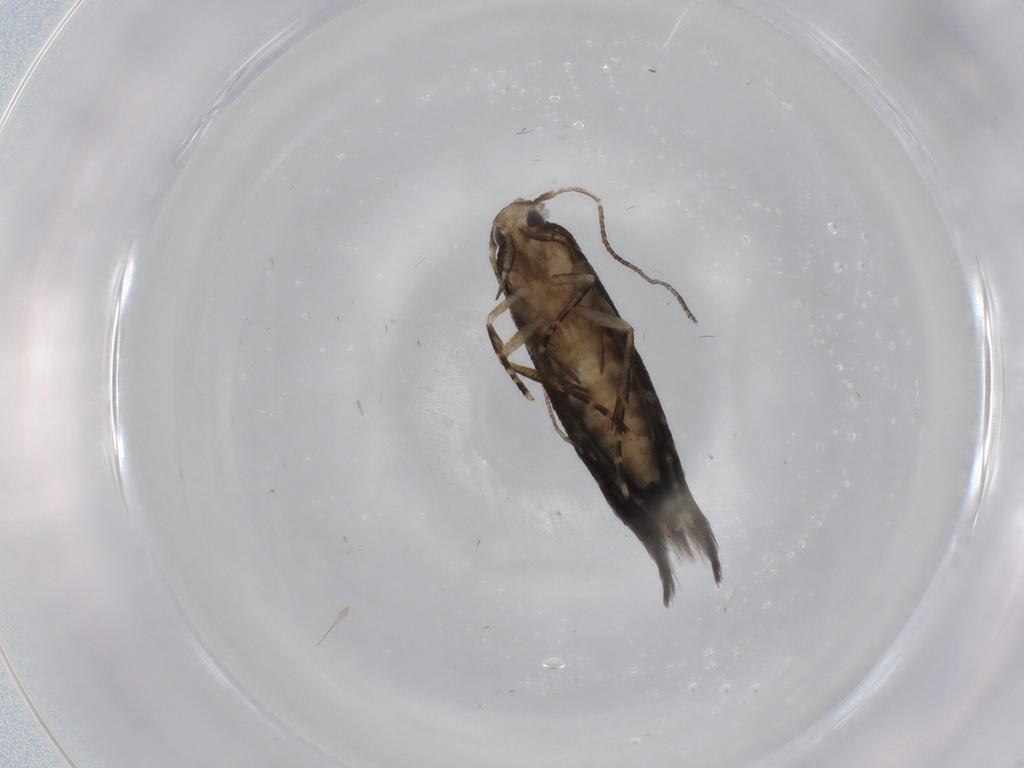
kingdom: Animalia
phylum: Arthropoda
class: Insecta
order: Lepidoptera
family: Cosmopterigidae
